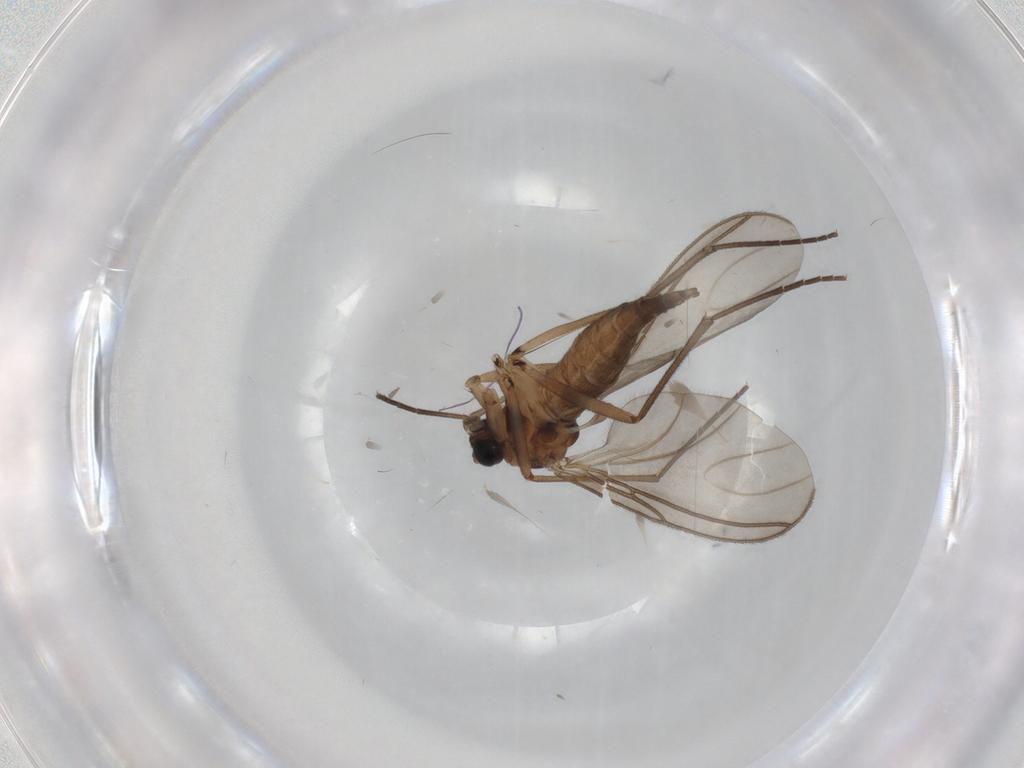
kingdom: Animalia
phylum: Arthropoda
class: Insecta
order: Diptera
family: Sciaridae
